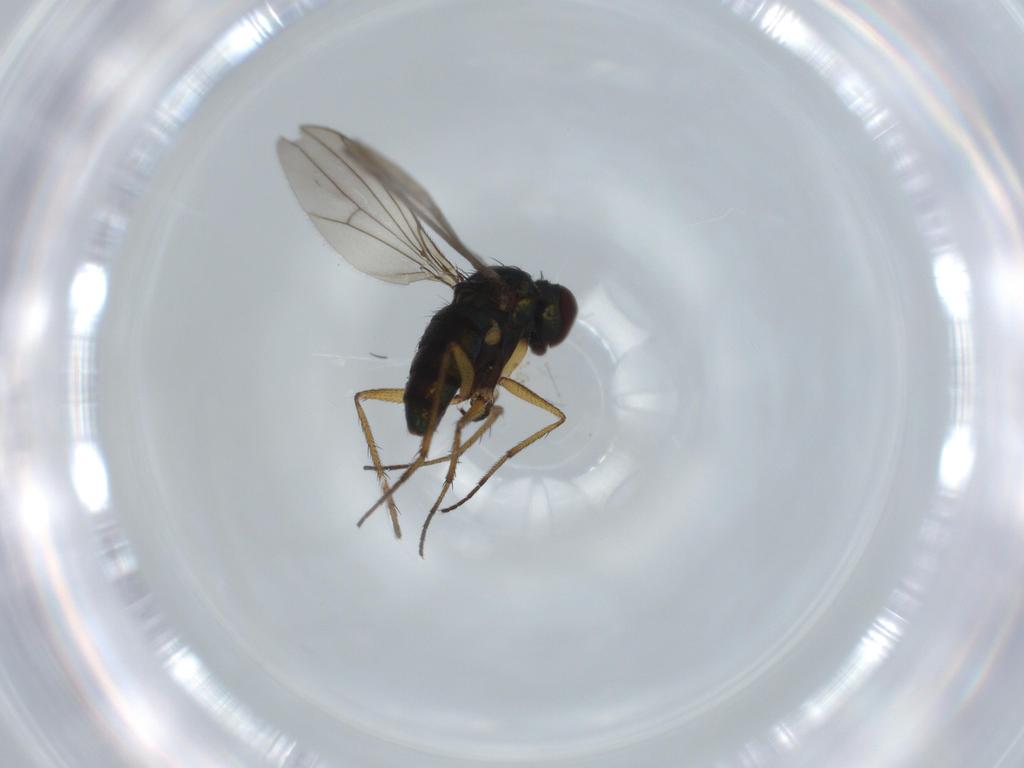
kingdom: Animalia
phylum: Arthropoda
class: Insecta
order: Diptera
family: Dolichopodidae
